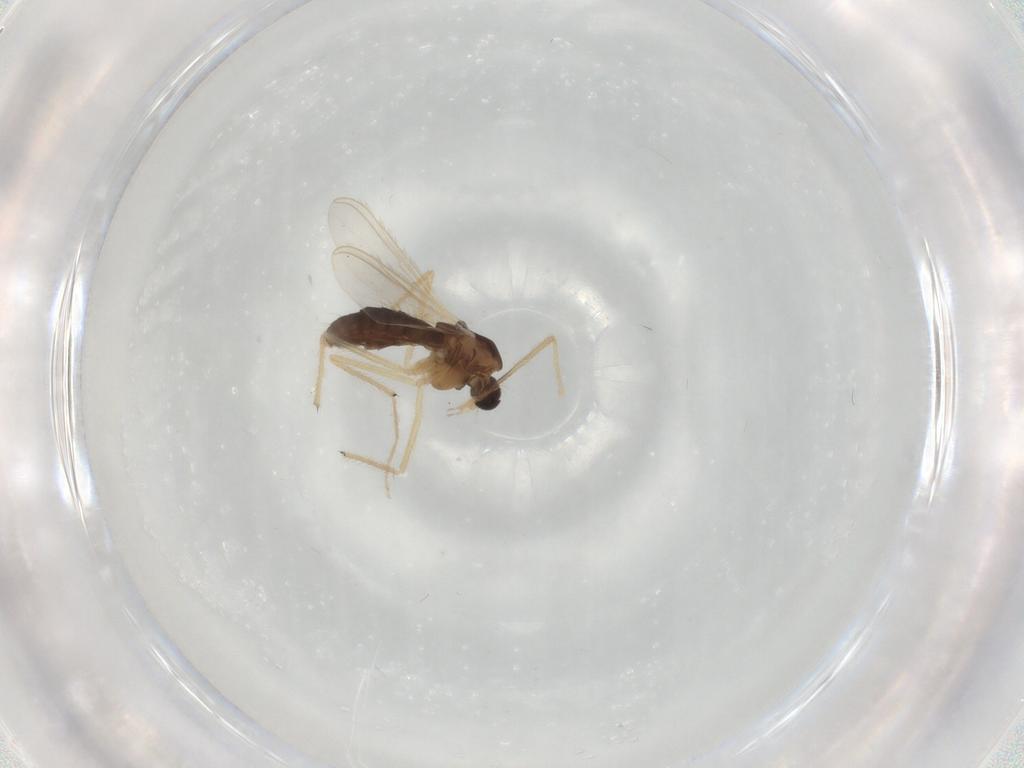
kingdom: Animalia
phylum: Arthropoda
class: Insecta
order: Diptera
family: Chironomidae
